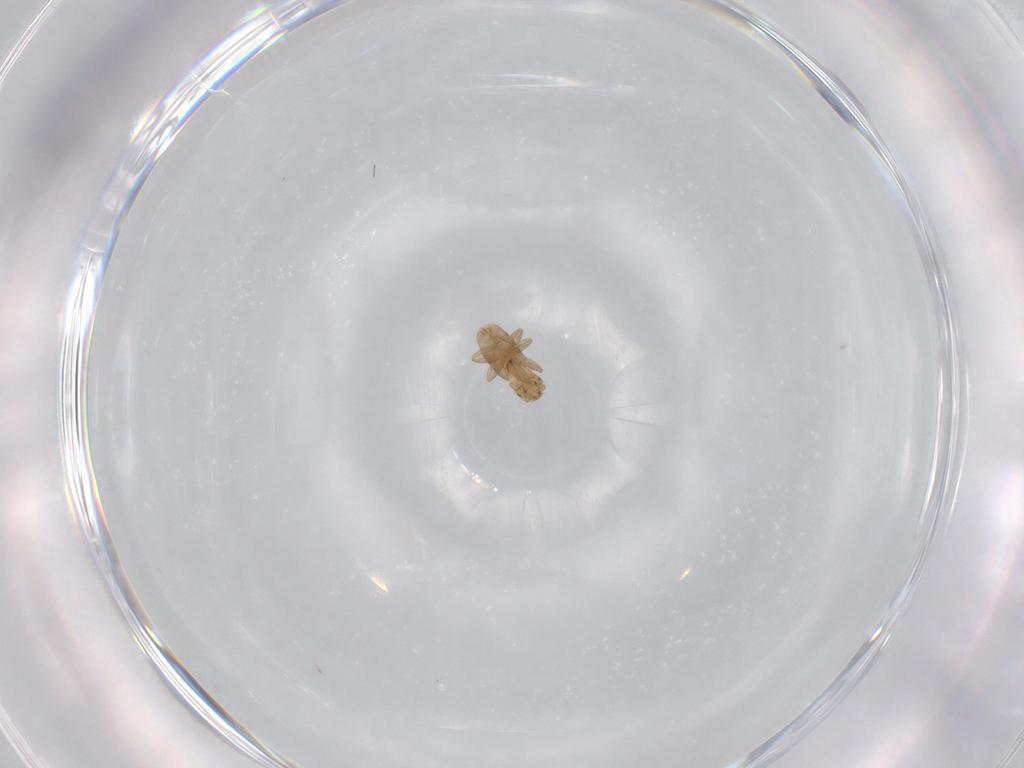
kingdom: Animalia
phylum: Arthropoda
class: Insecta
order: Diptera
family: Phoridae
